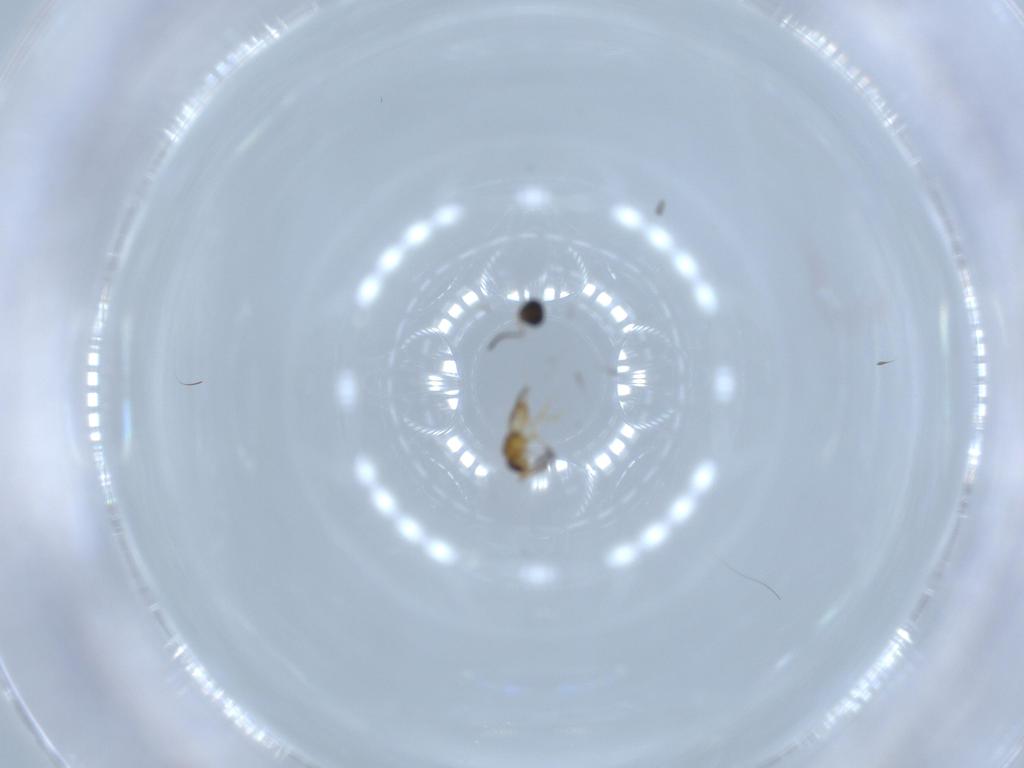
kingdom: Animalia
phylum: Arthropoda
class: Insecta
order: Hymenoptera
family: Ceraphronidae
